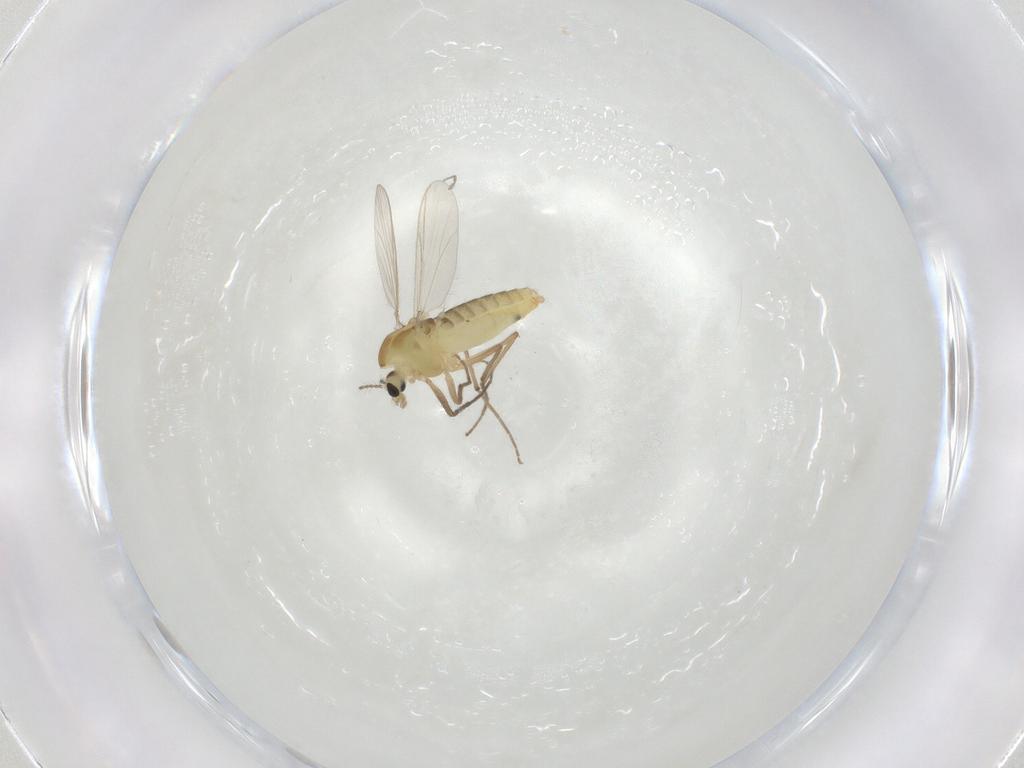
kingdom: Animalia
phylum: Arthropoda
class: Insecta
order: Diptera
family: Chironomidae
